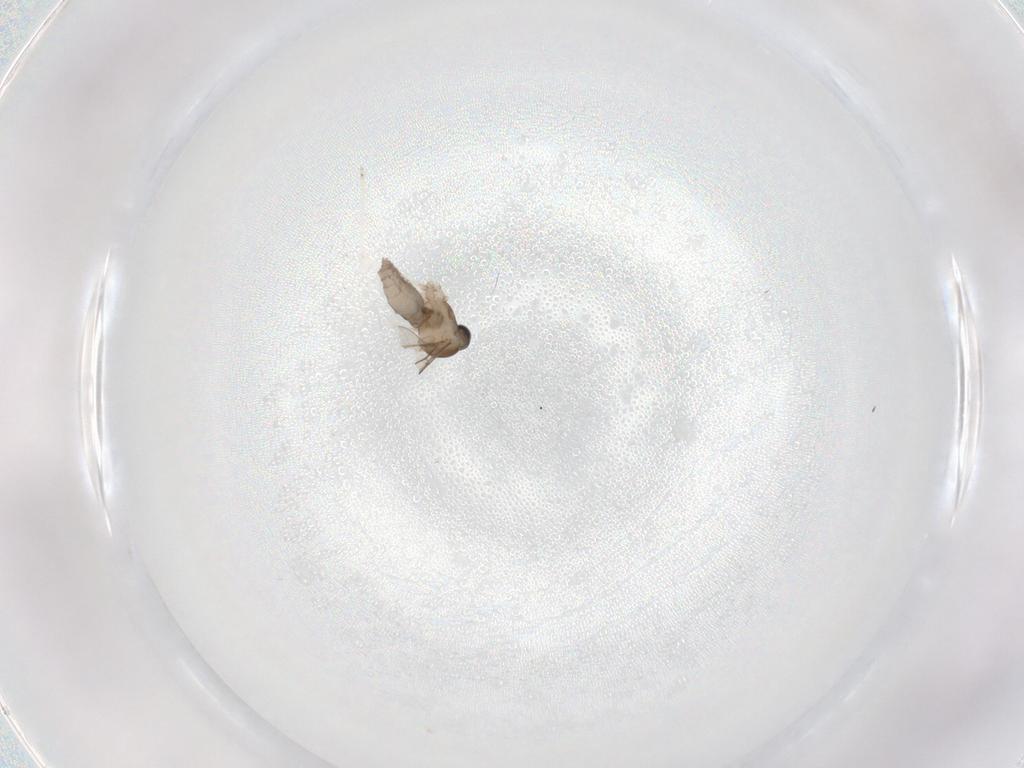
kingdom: Animalia
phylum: Arthropoda
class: Insecta
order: Diptera
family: Cecidomyiidae
